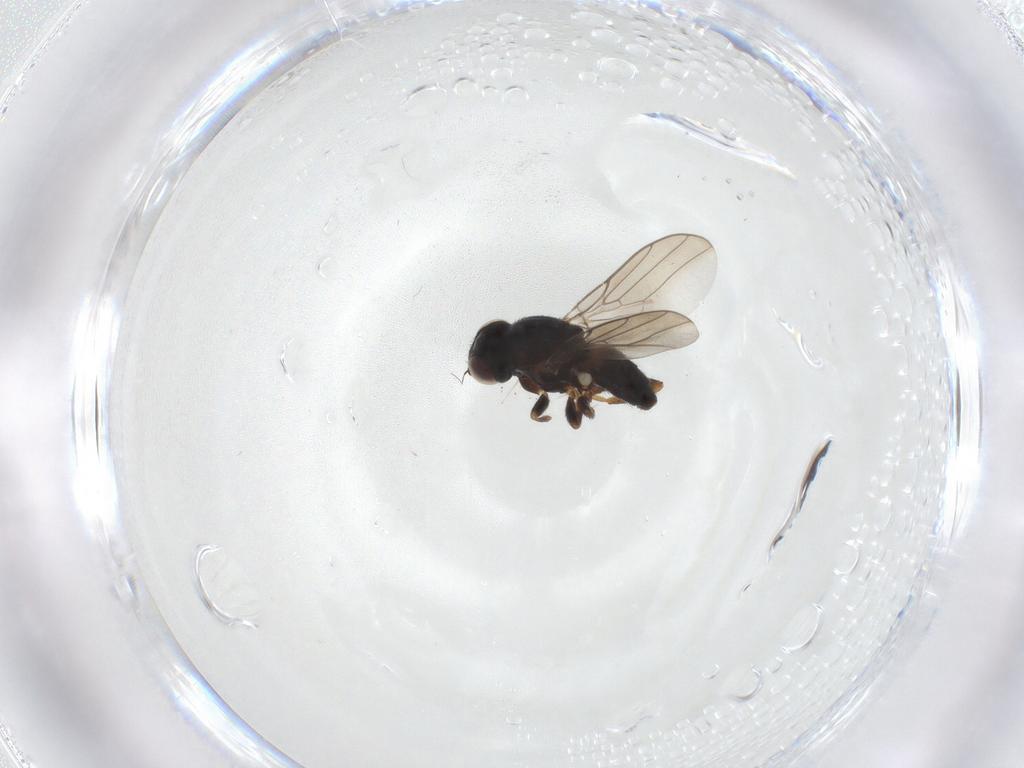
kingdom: Animalia
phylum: Arthropoda
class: Insecta
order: Diptera
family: Chloropidae
